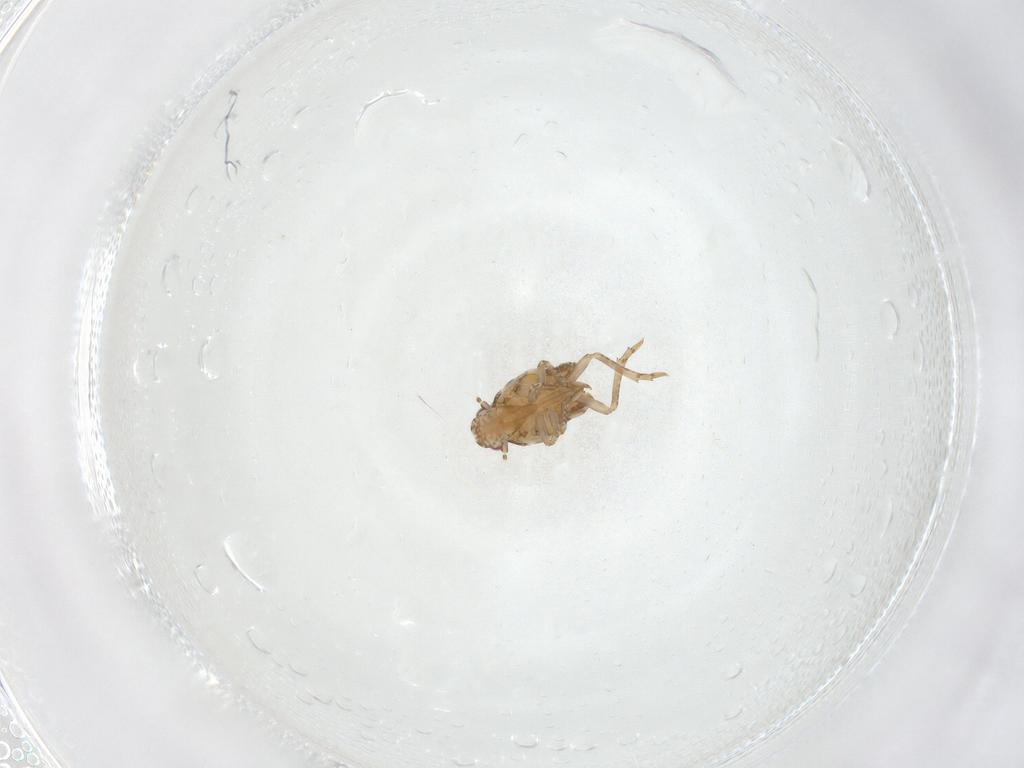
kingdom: Animalia
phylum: Arthropoda
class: Insecta
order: Hemiptera
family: Flatidae
